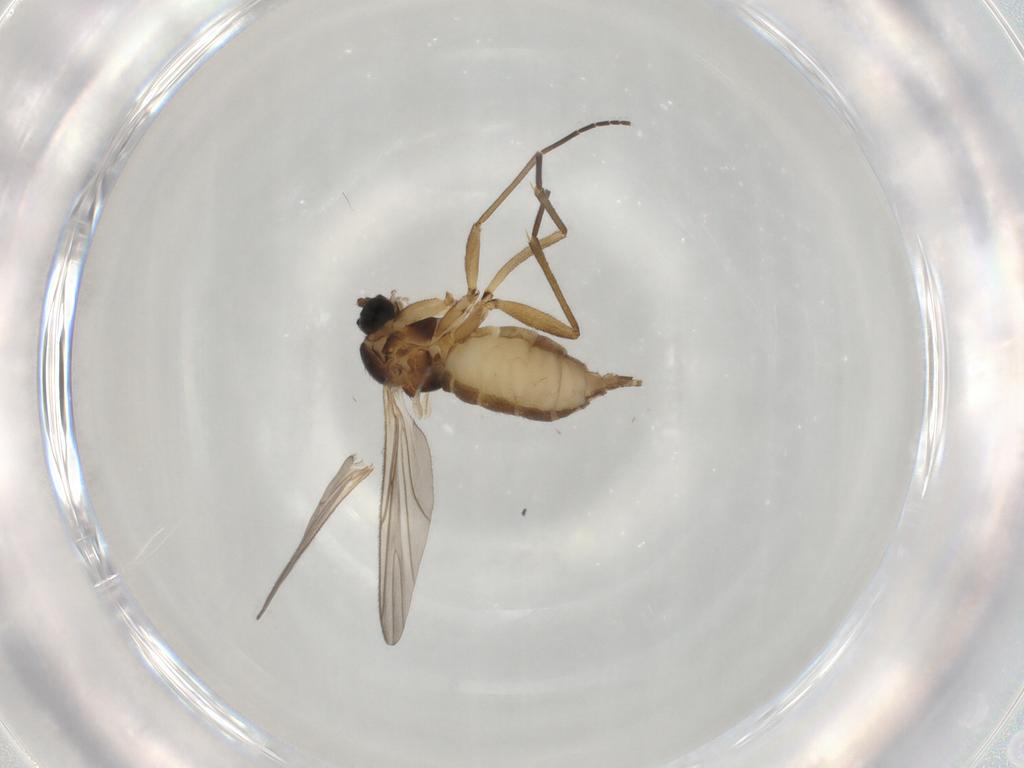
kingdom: Animalia
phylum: Arthropoda
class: Insecta
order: Diptera
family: Sciaridae
